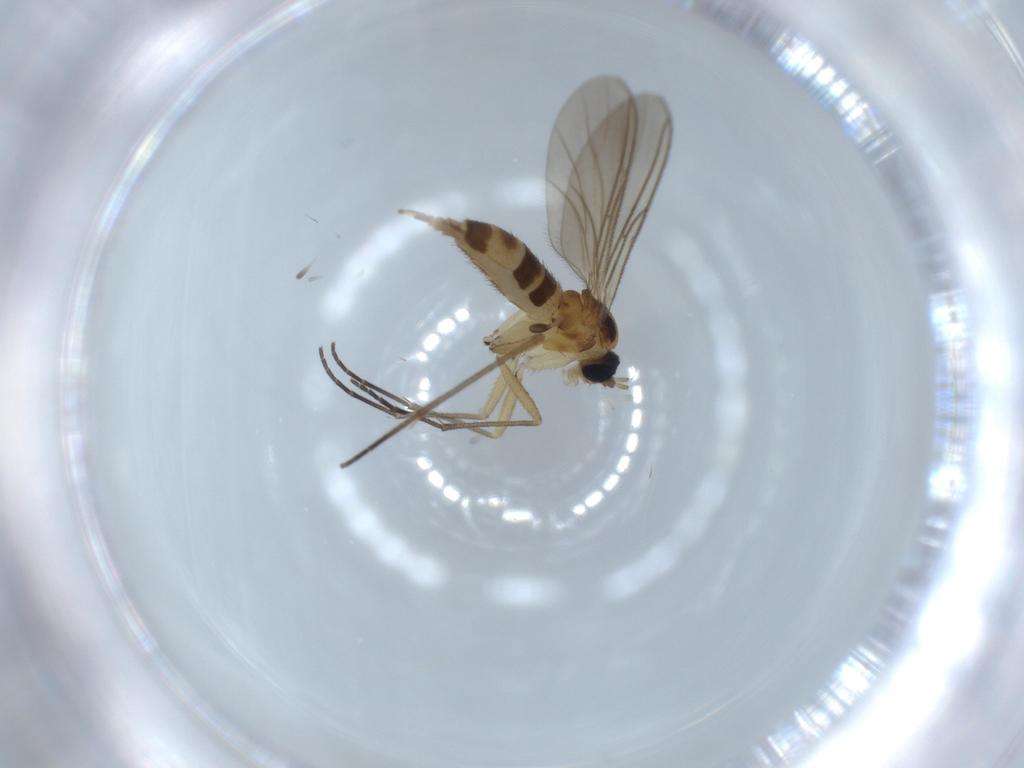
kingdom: Animalia
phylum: Arthropoda
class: Insecta
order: Diptera
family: Sciaridae
